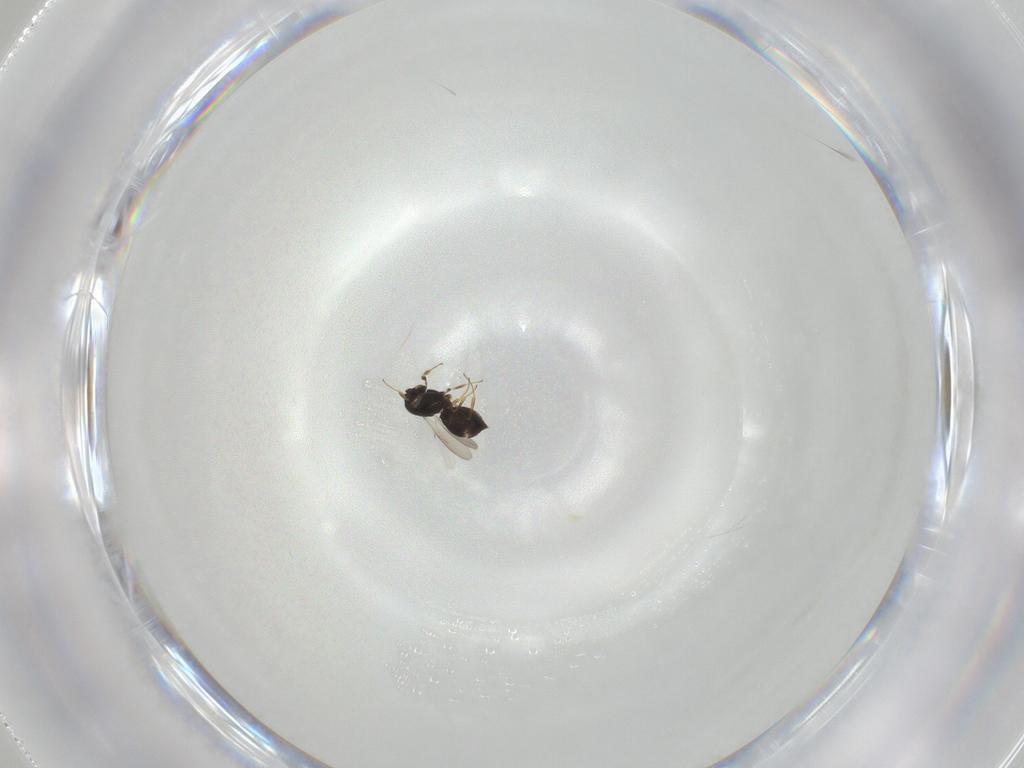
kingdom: Animalia
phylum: Arthropoda
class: Insecta
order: Hymenoptera
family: Scelionidae
